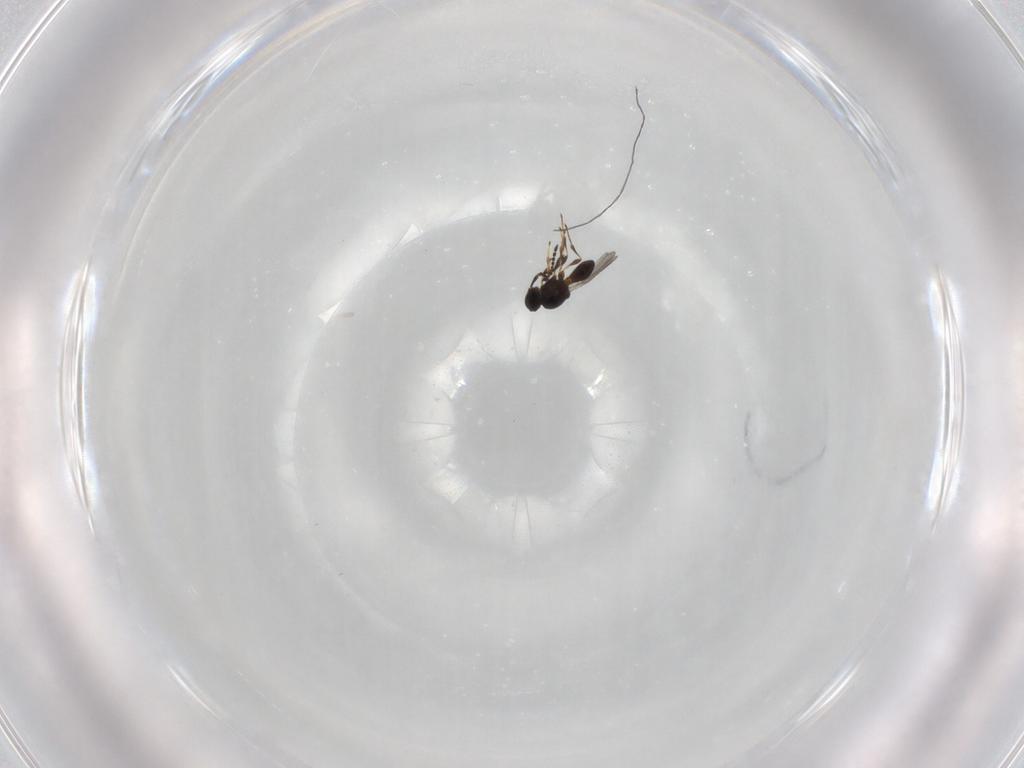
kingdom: Animalia
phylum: Arthropoda
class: Insecta
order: Hymenoptera
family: Platygastridae
